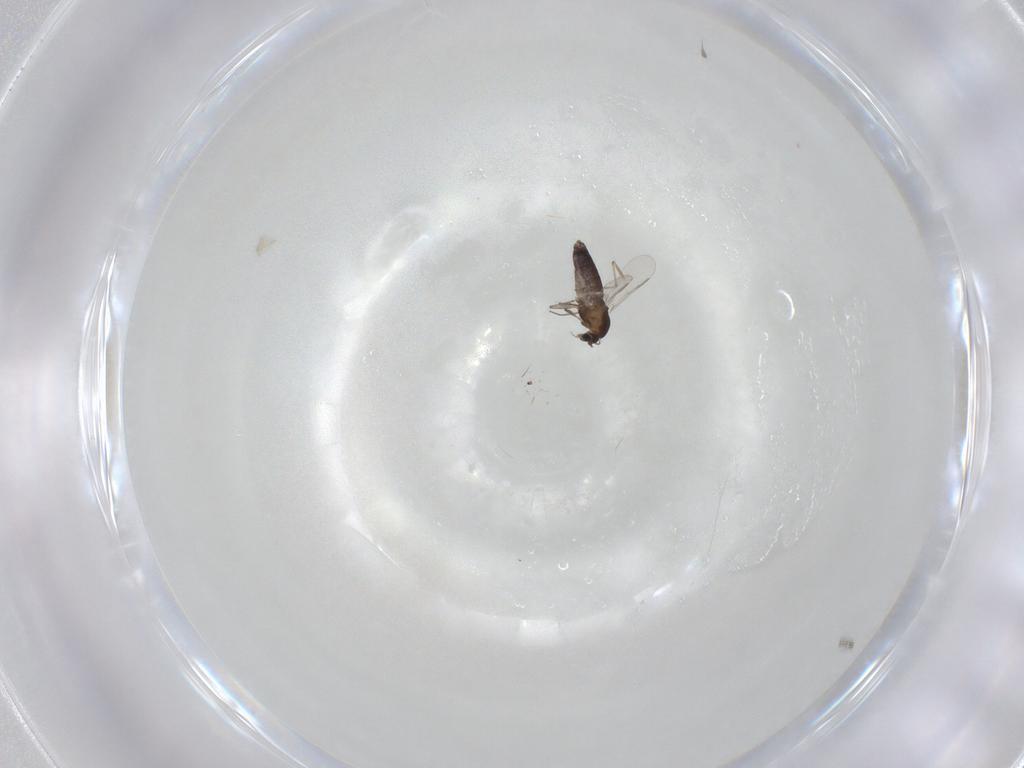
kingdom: Animalia
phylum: Arthropoda
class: Insecta
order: Diptera
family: Chironomidae
